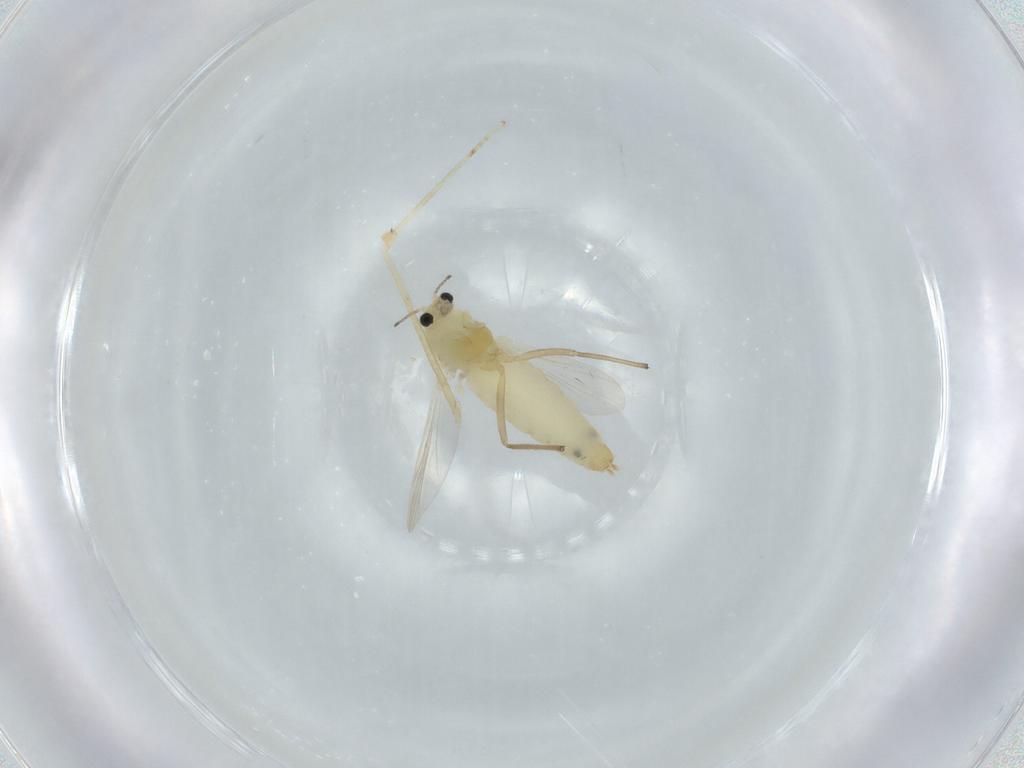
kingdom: Animalia
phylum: Arthropoda
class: Insecta
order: Diptera
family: Chironomidae
